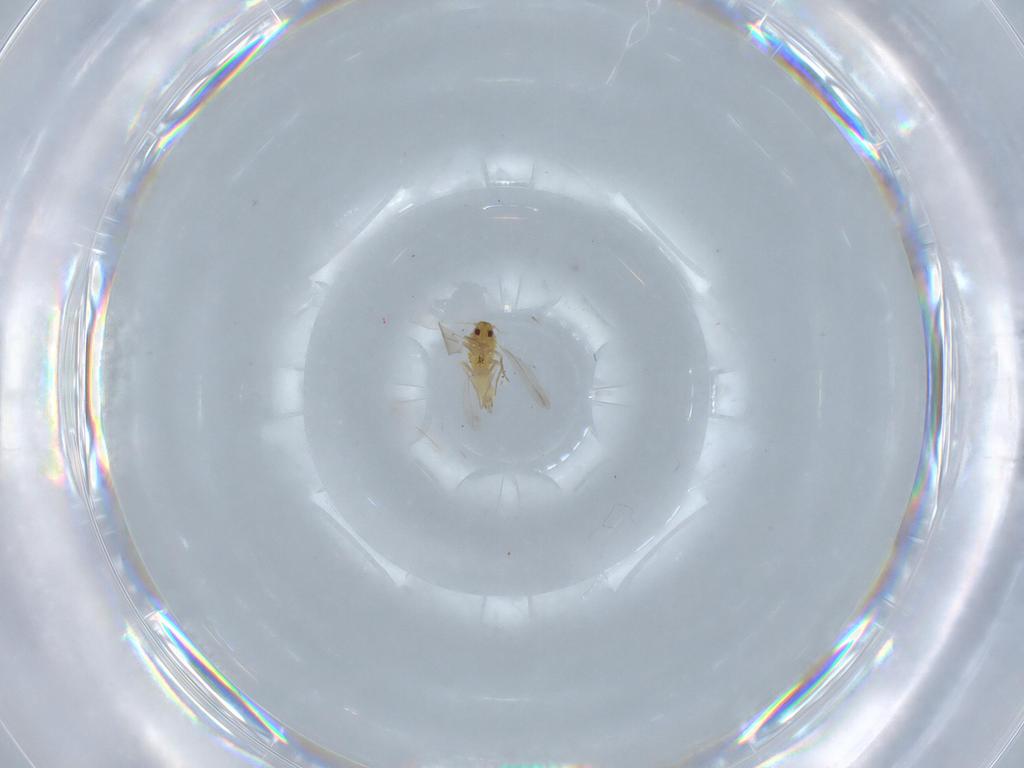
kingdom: Animalia
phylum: Arthropoda
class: Insecta
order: Hemiptera
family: Aleyrodidae
